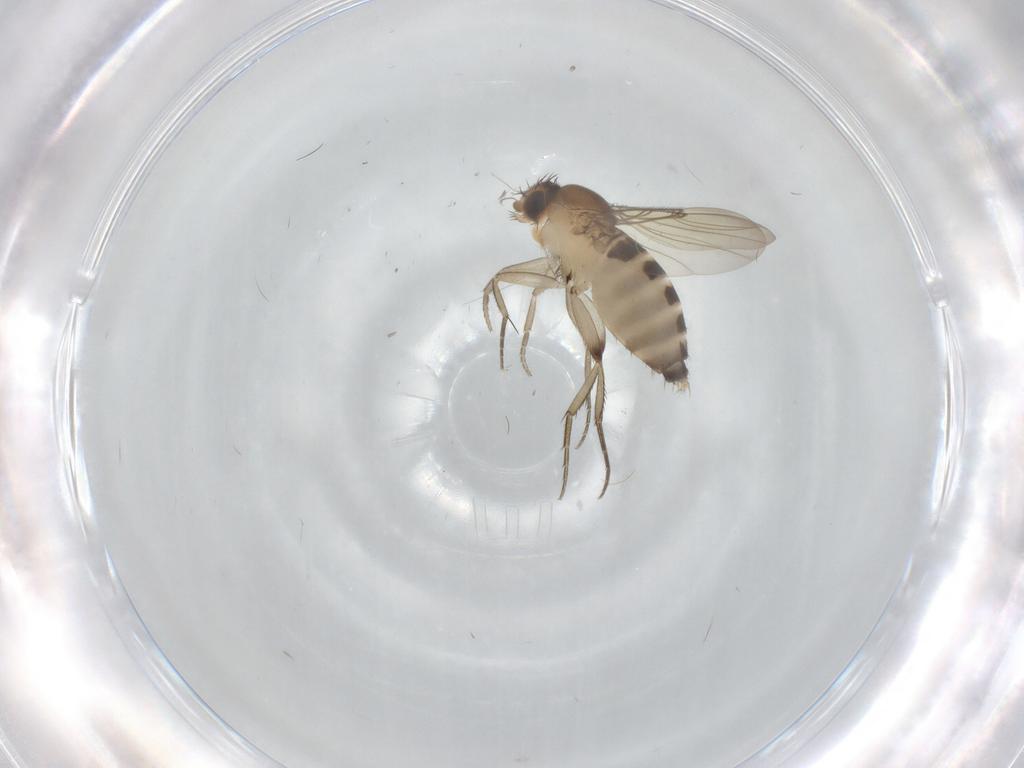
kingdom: Animalia
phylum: Arthropoda
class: Insecta
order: Diptera
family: Phoridae
